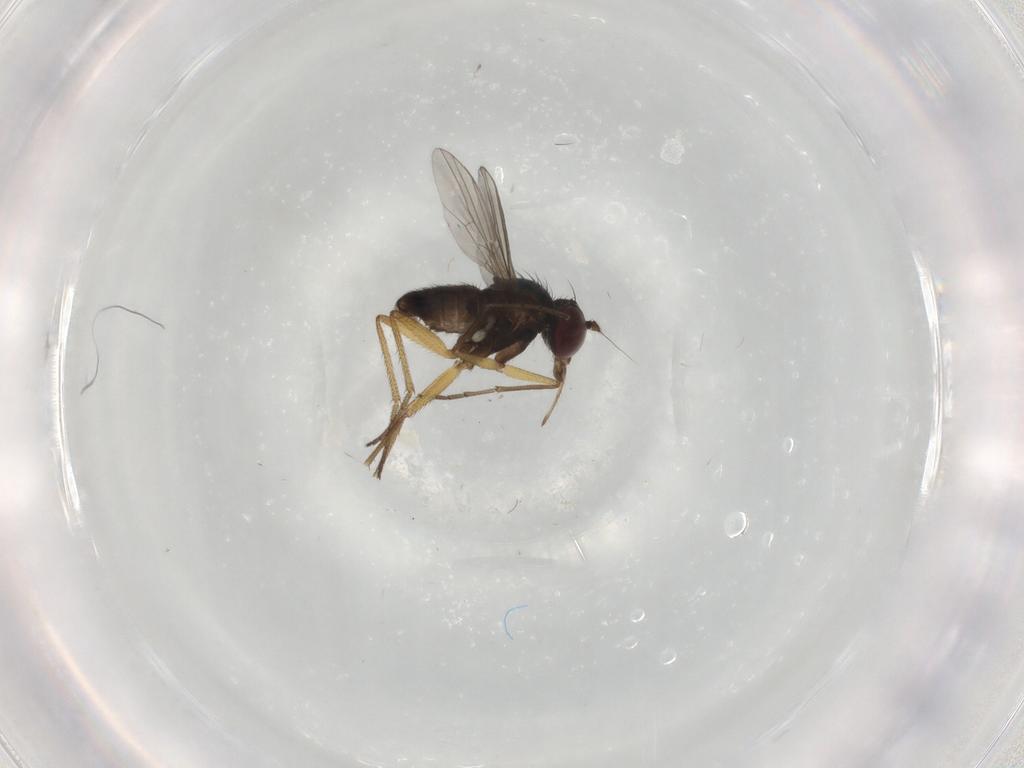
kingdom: Animalia
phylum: Arthropoda
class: Insecta
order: Diptera
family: Dolichopodidae
